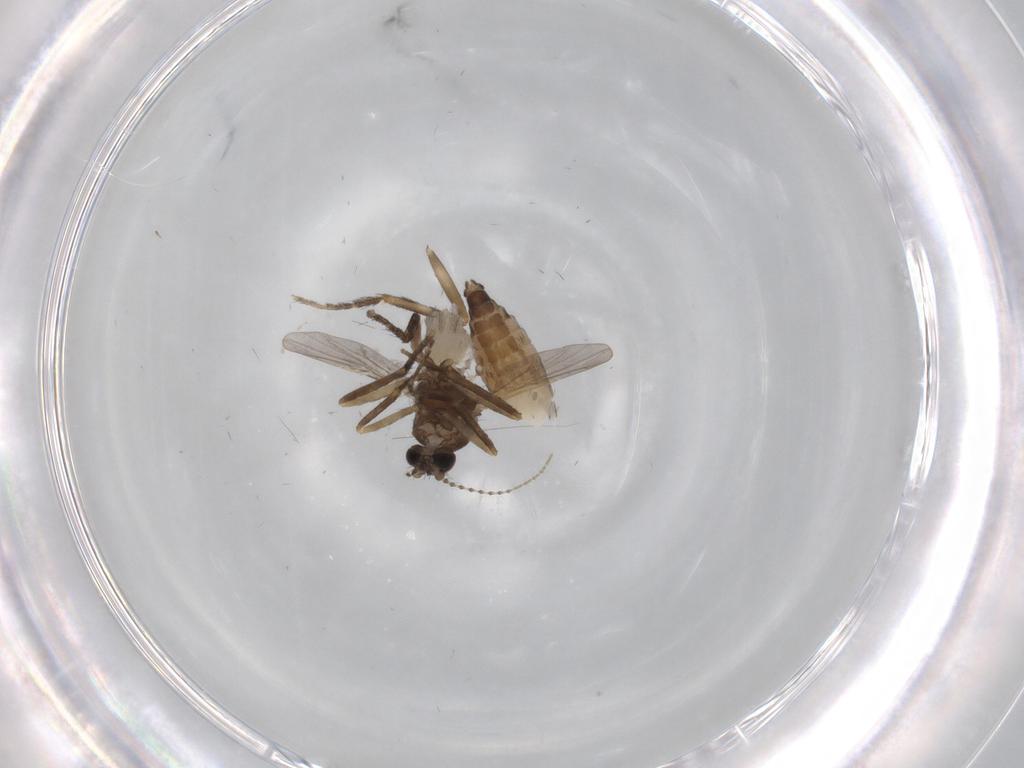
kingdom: Animalia
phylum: Arthropoda
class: Insecta
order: Diptera
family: Ceratopogonidae
